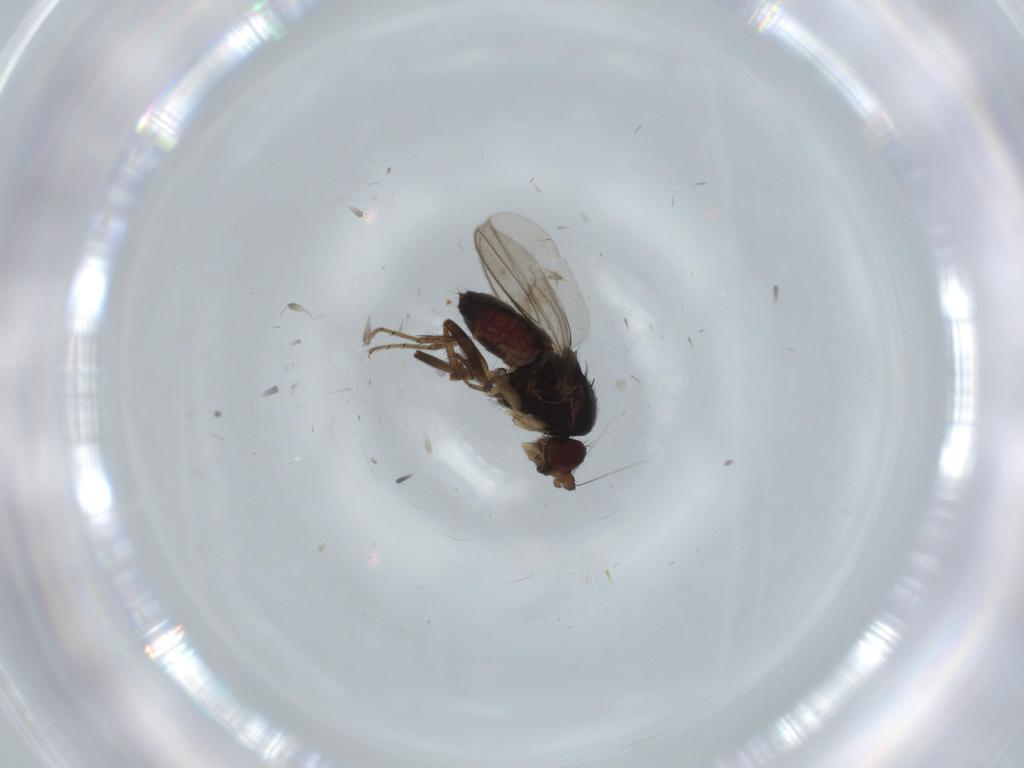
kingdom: Animalia
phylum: Arthropoda
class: Insecta
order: Diptera
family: Sphaeroceridae
